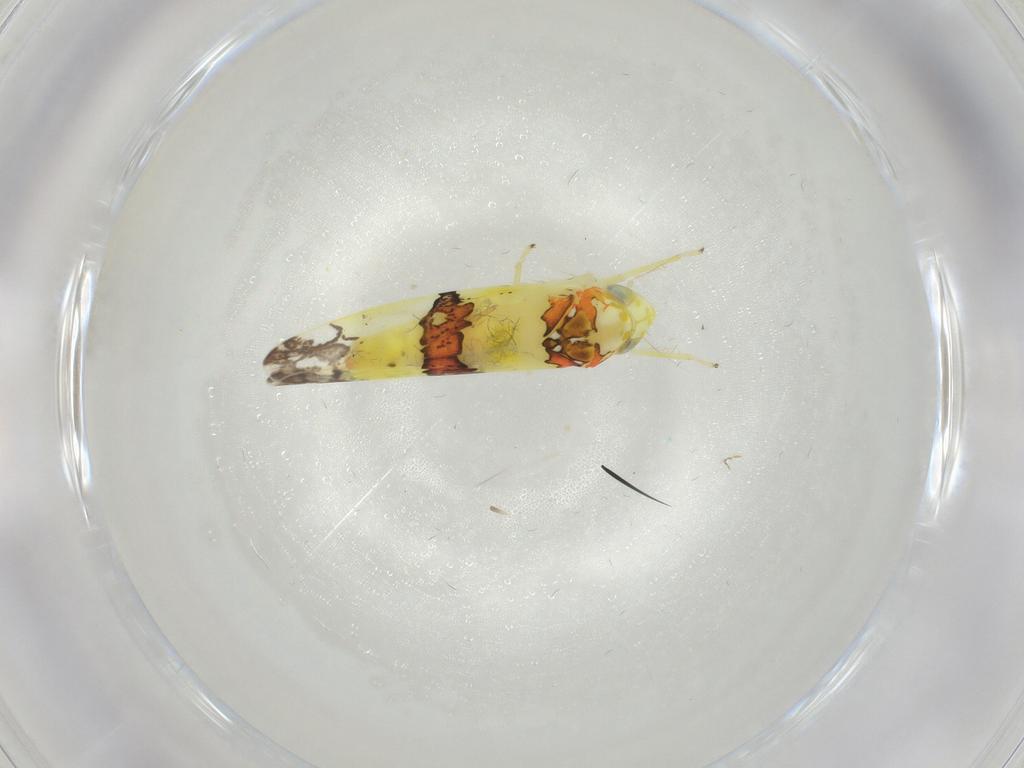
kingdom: Animalia
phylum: Arthropoda
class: Insecta
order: Hemiptera
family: Cicadellidae
